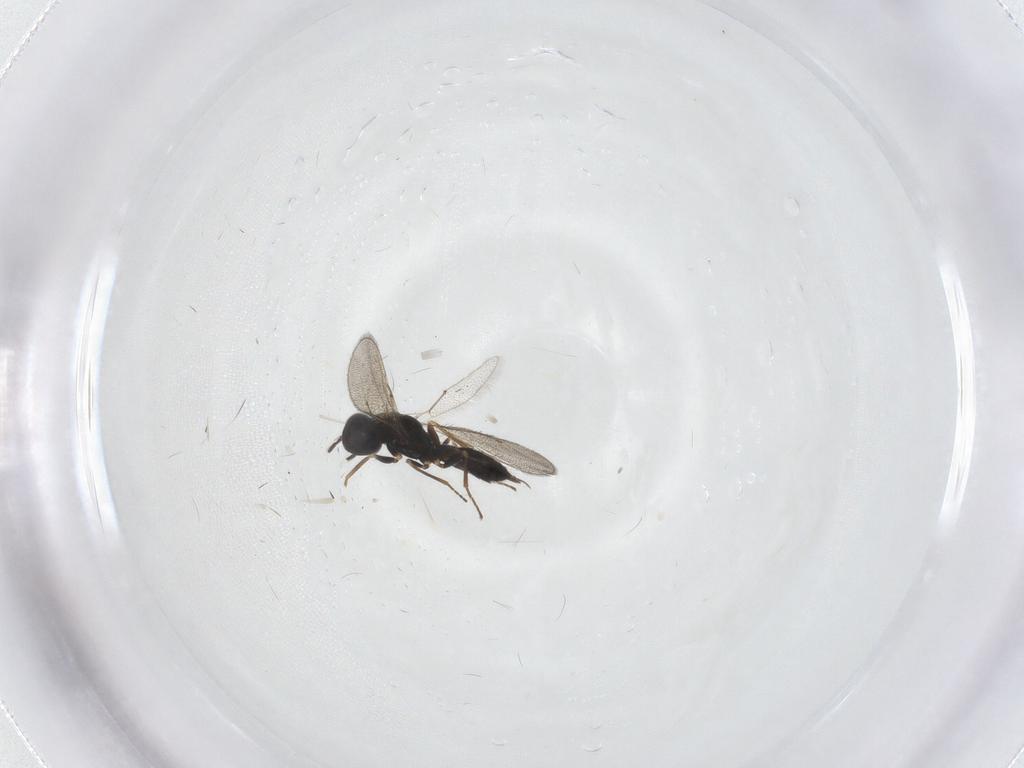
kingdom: Animalia
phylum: Arthropoda
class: Insecta
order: Hymenoptera
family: Eulophidae
